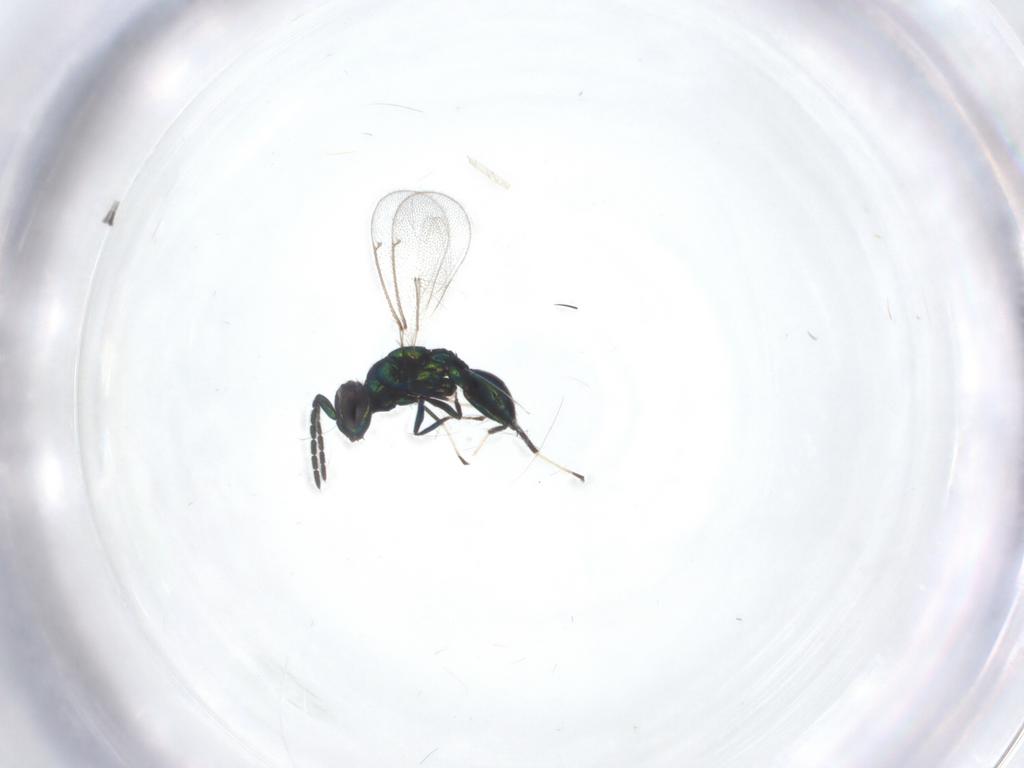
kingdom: Animalia
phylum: Arthropoda
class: Insecta
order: Hymenoptera
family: Eulophidae
